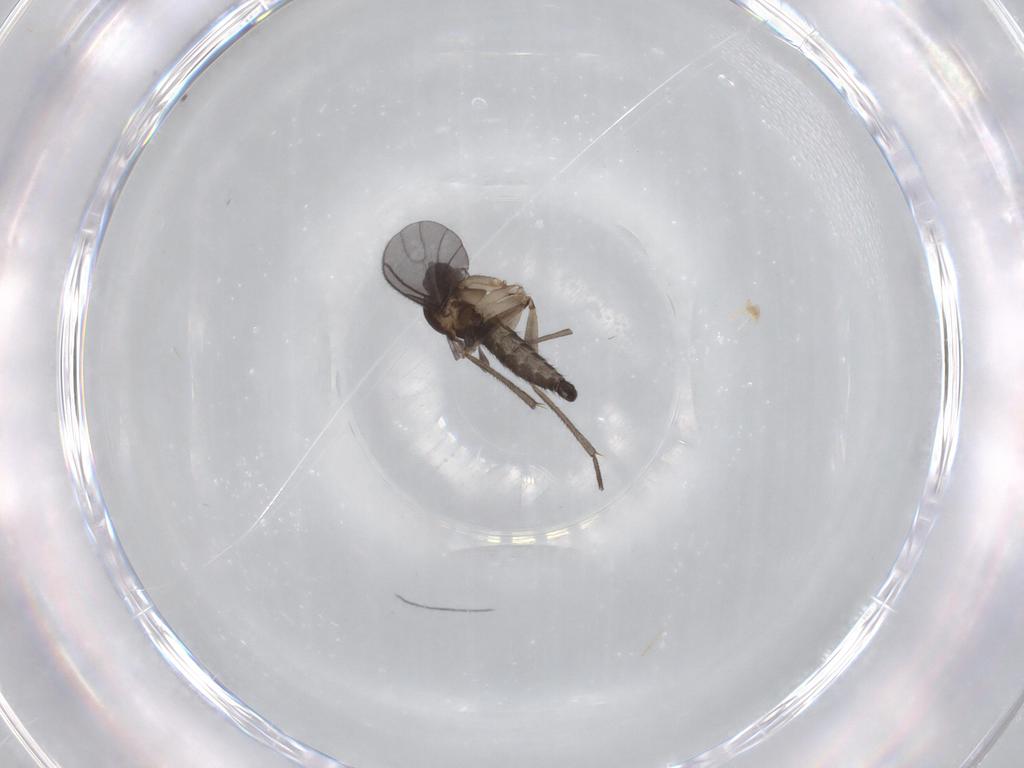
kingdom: Animalia
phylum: Arthropoda
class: Insecta
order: Diptera
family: Sciaridae
